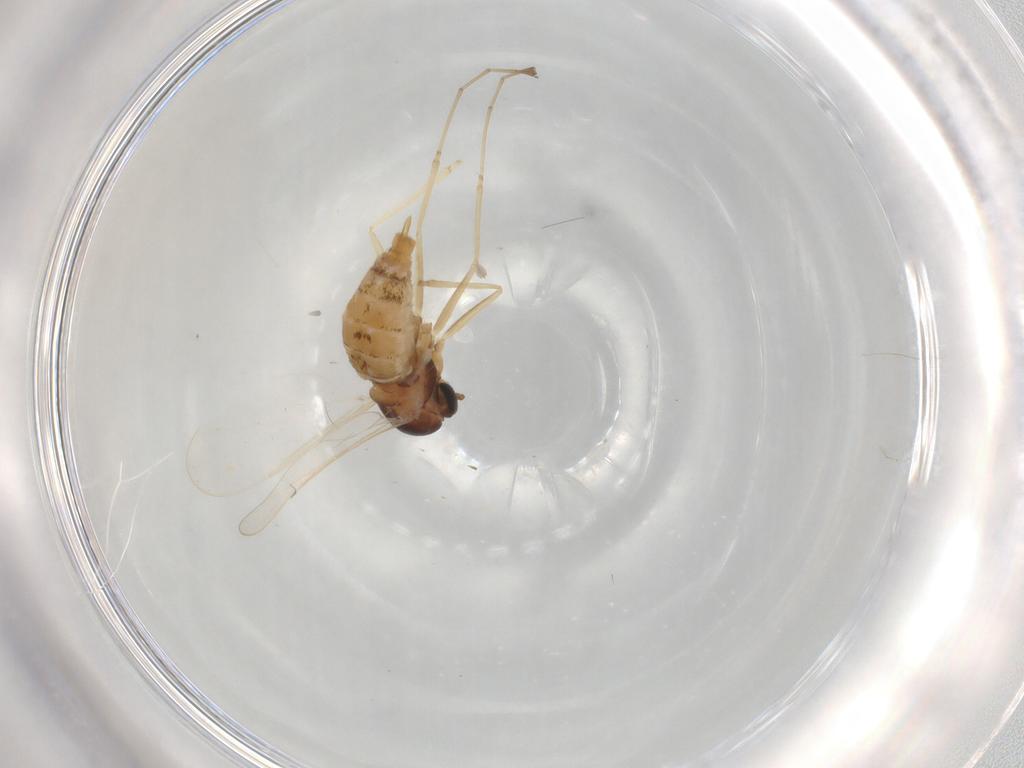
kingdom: Animalia
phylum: Arthropoda
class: Insecta
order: Diptera
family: Cecidomyiidae
